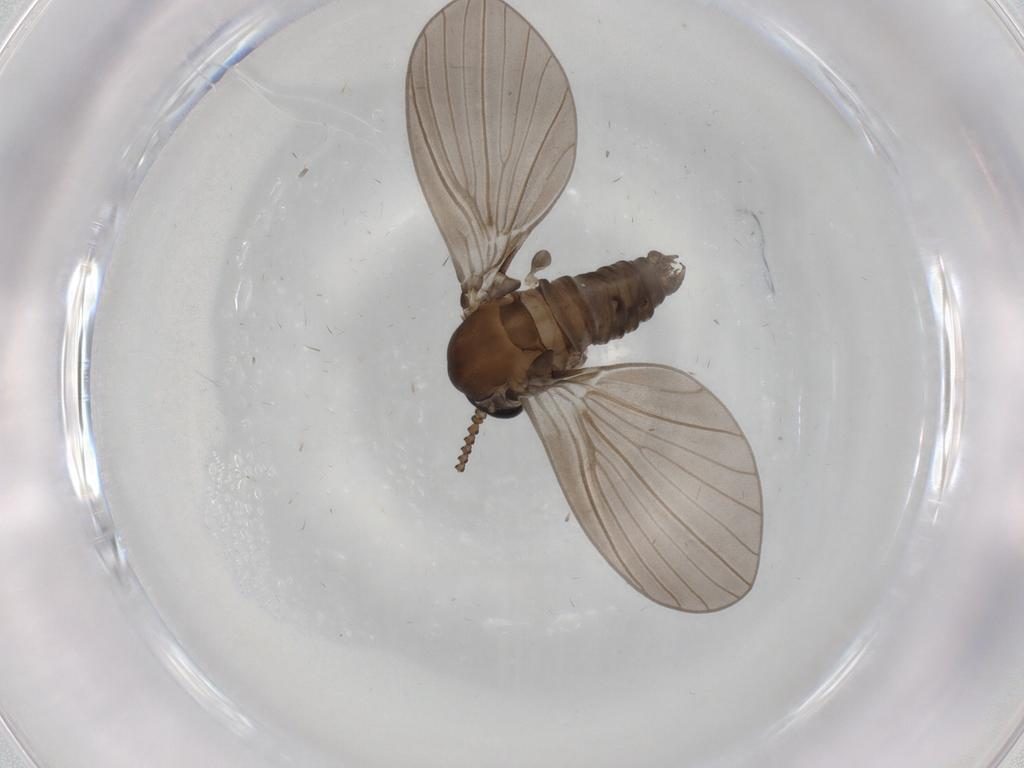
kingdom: Animalia
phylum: Arthropoda
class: Insecta
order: Diptera
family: Dolichopodidae
